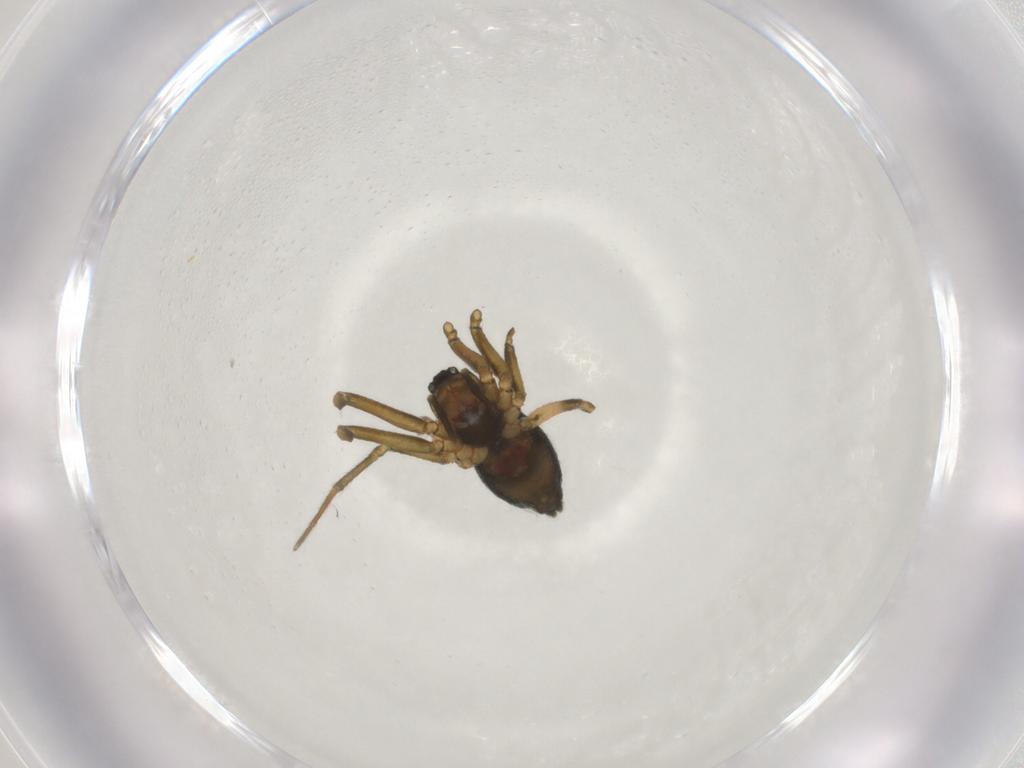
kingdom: Animalia
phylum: Arthropoda
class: Arachnida
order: Araneae
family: Linyphiidae
